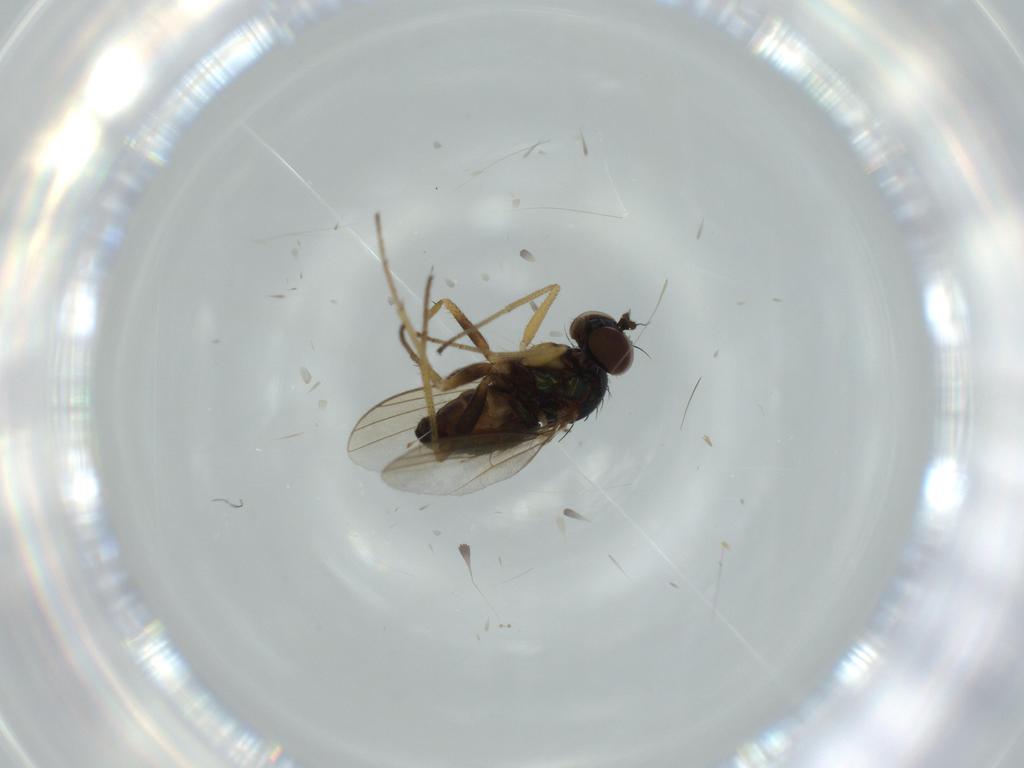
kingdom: Animalia
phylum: Arthropoda
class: Insecta
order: Diptera
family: Dolichopodidae
